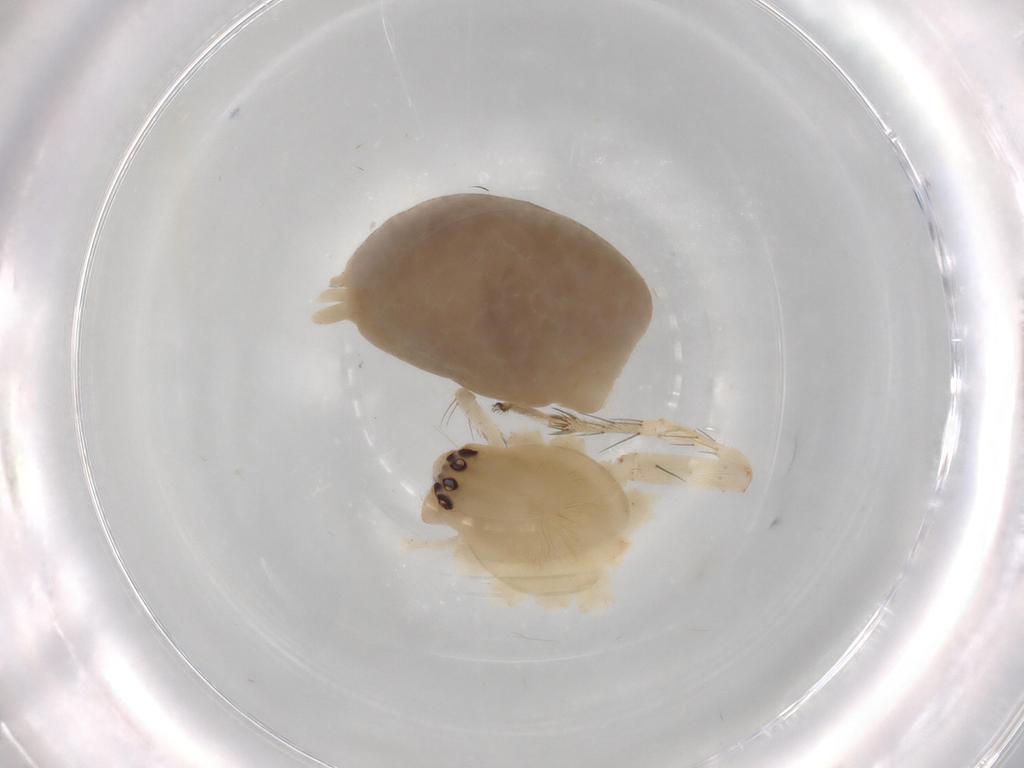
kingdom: Animalia
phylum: Arthropoda
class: Arachnida
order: Araneae
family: Anyphaenidae
